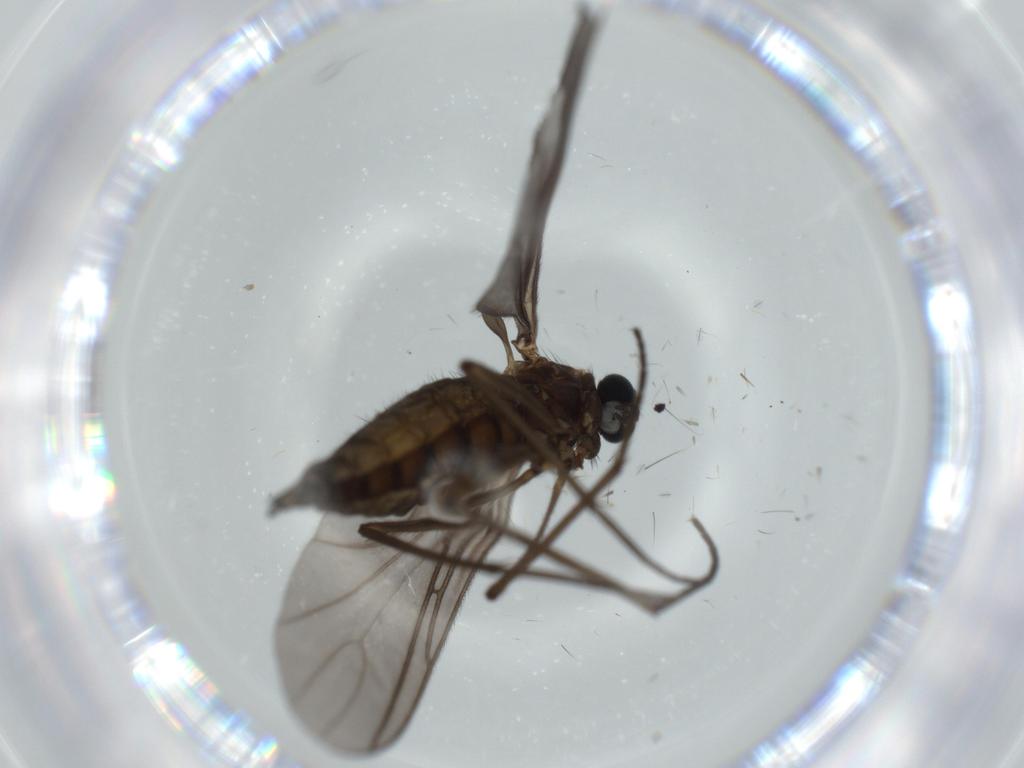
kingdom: Animalia
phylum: Arthropoda
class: Insecta
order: Diptera
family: Sciaridae
